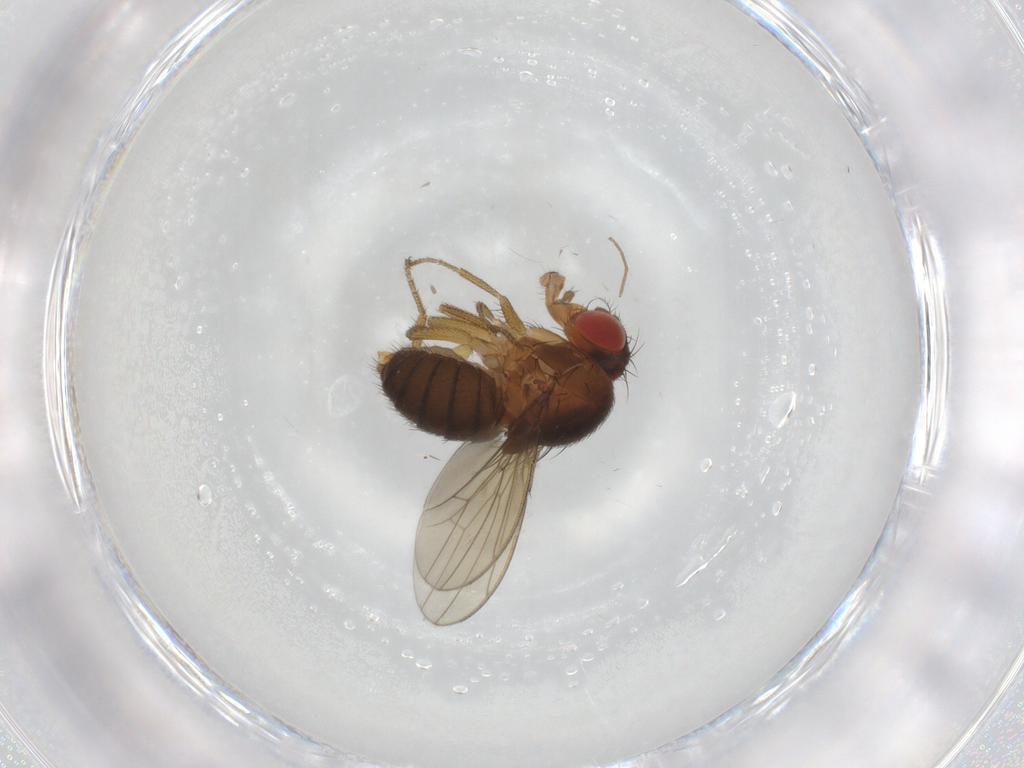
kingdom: Animalia
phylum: Arthropoda
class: Insecta
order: Diptera
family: Drosophilidae
